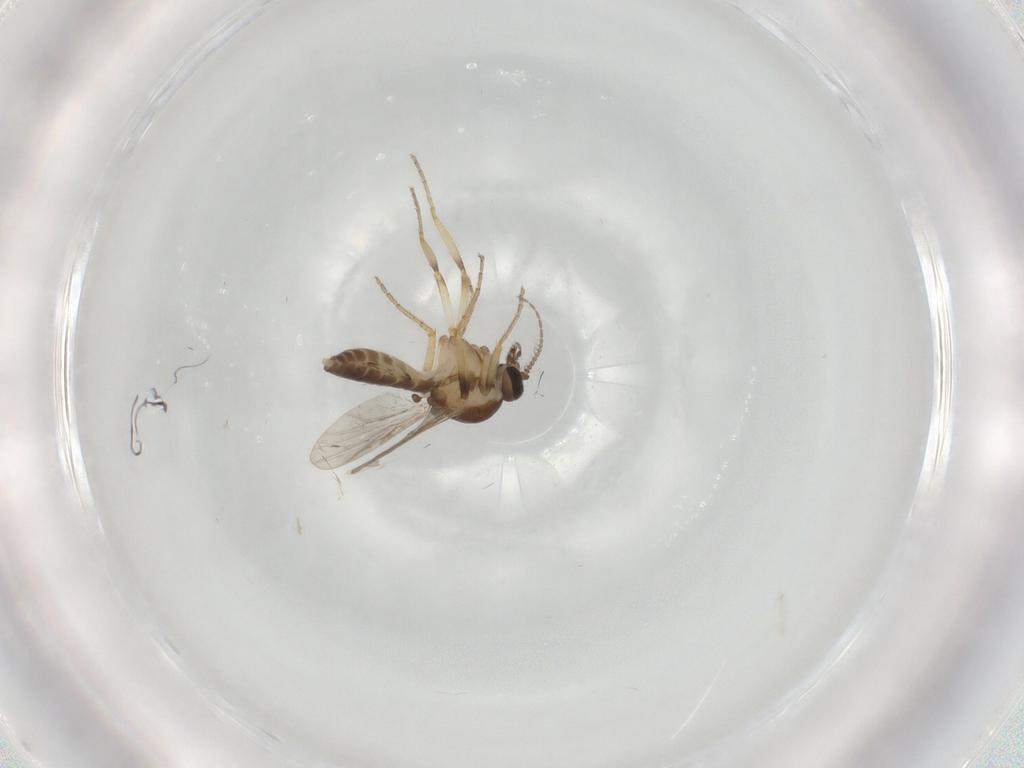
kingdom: Animalia
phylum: Arthropoda
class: Insecta
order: Diptera
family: Ceratopogonidae
